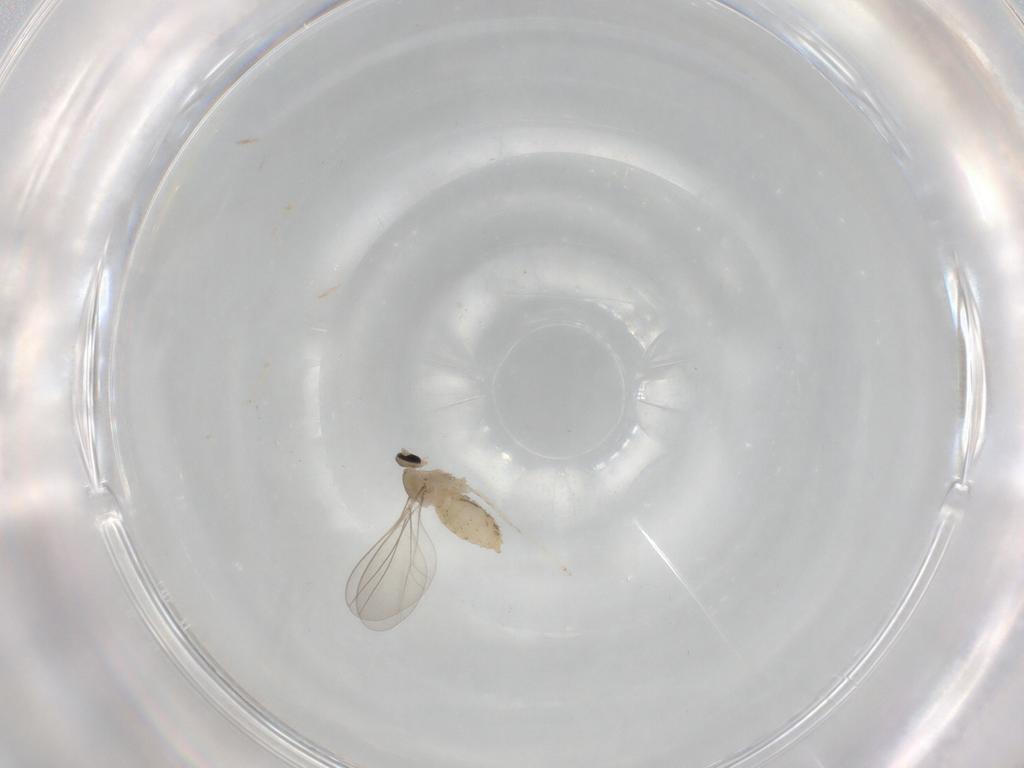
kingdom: Animalia
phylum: Arthropoda
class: Insecta
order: Diptera
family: Cecidomyiidae
